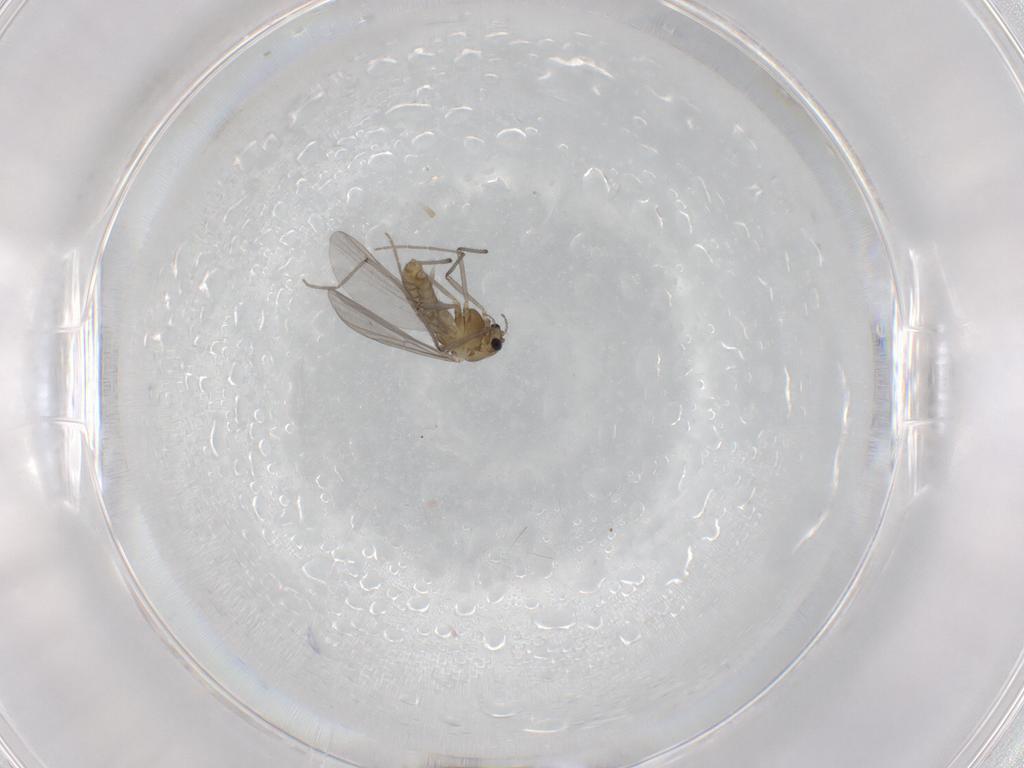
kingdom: Animalia
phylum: Arthropoda
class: Insecta
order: Diptera
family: Chironomidae
